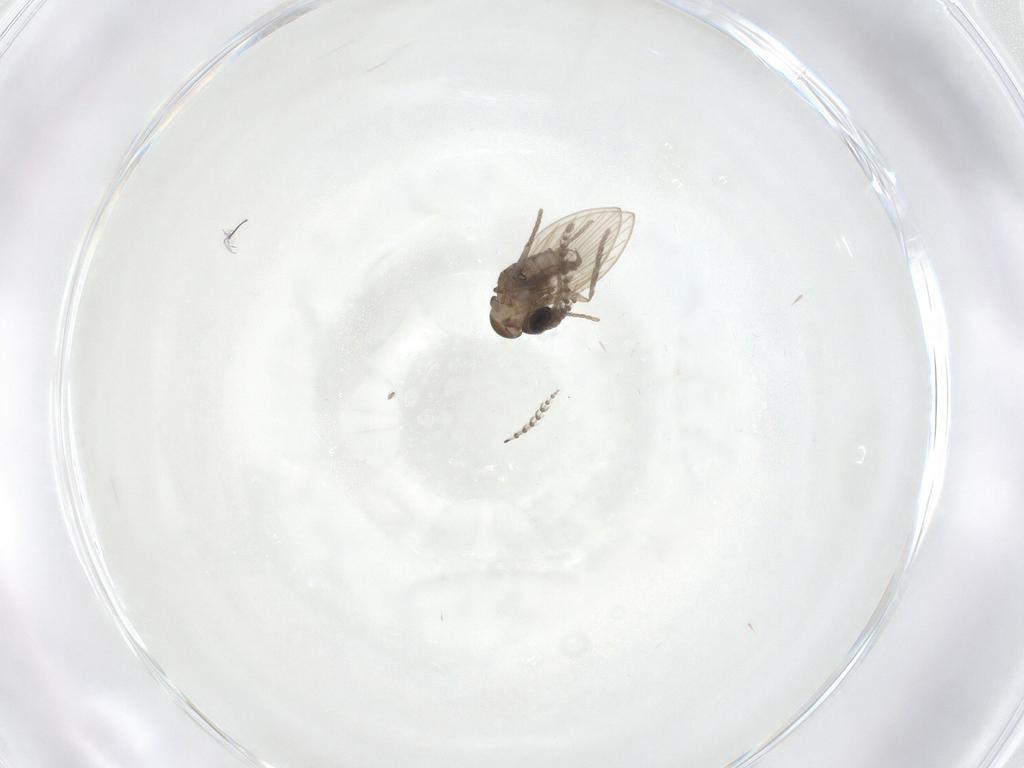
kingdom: Animalia
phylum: Arthropoda
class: Insecta
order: Diptera
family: Psychodidae
